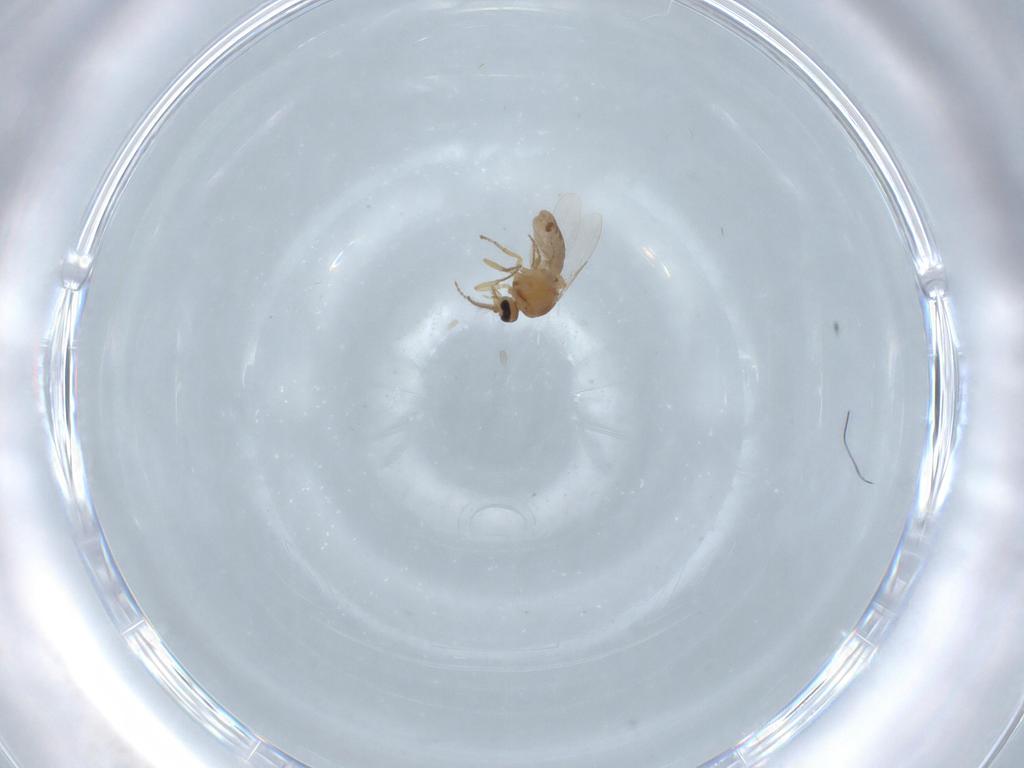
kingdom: Animalia
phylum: Arthropoda
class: Insecta
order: Diptera
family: Ceratopogonidae
